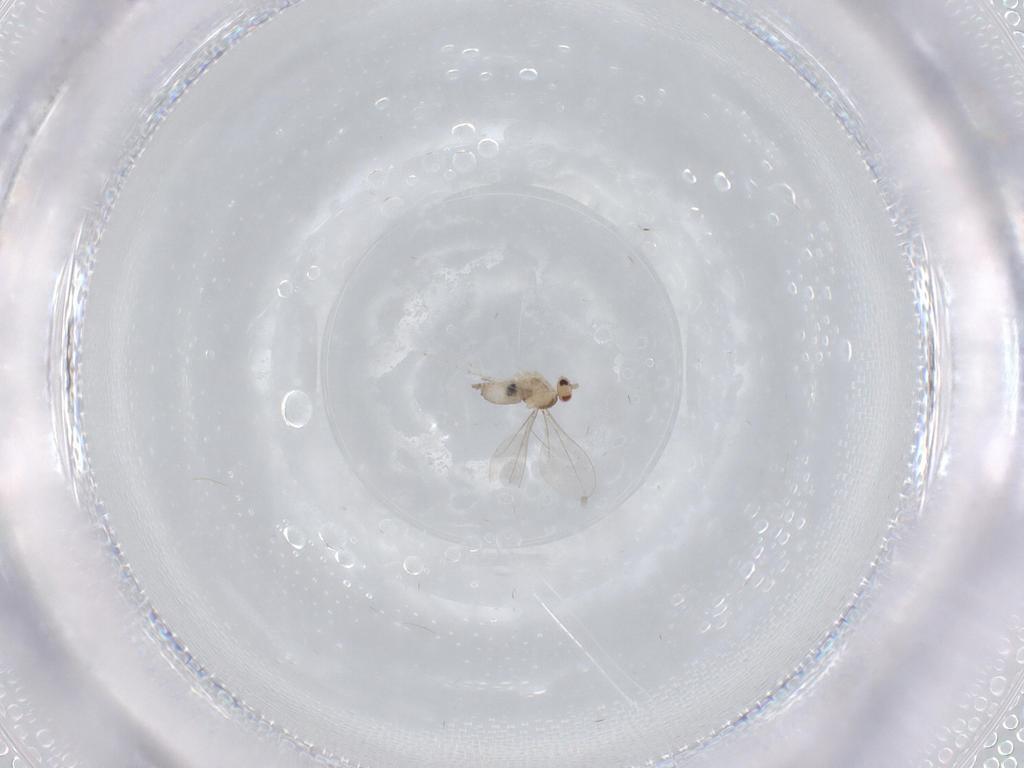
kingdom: Animalia
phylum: Arthropoda
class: Insecta
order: Diptera
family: Cecidomyiidae
